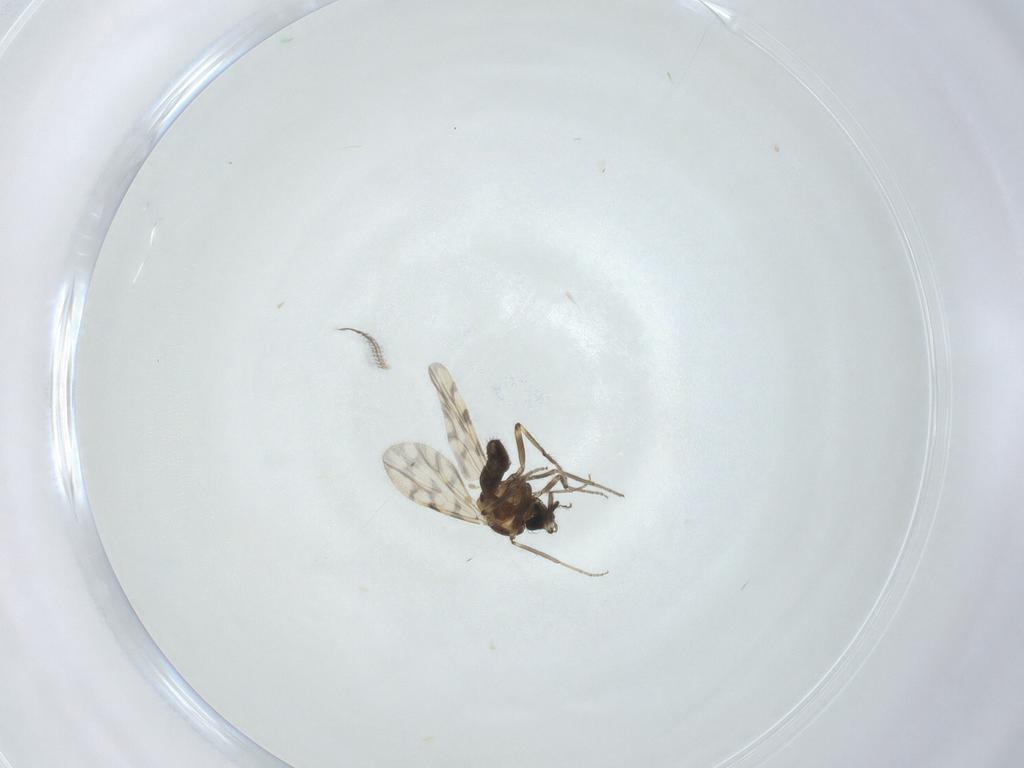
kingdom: Animalia
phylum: Arthropoda
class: Insecta
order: Diptera
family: Ceratopogonidae
